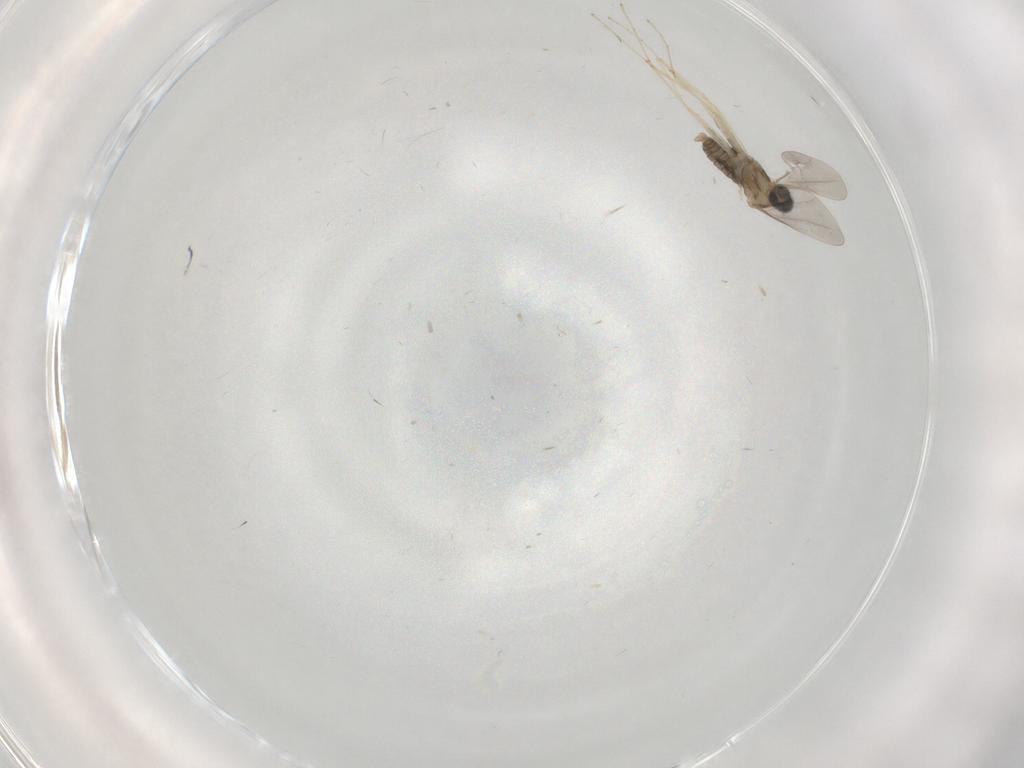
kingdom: Animalia
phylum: Arthropoda
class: Insecta
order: Diptera
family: Cecidomyiidae
